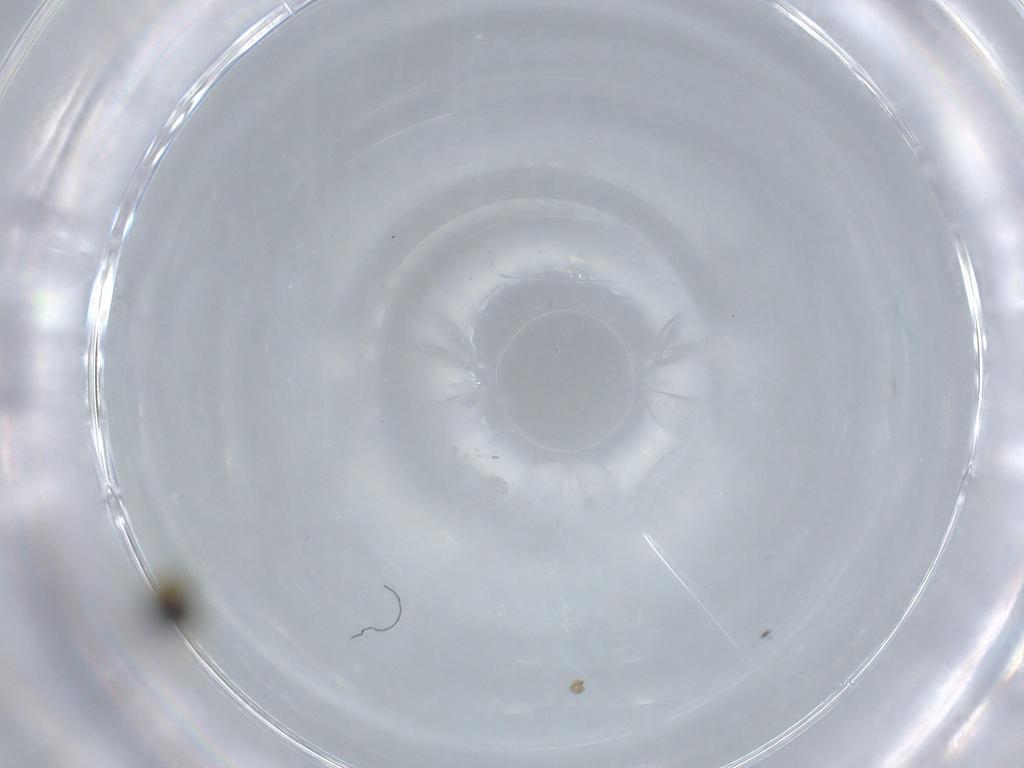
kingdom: Animalia
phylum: Arthropoda
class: Insecta
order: Hymenoptera
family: Signiphoridae
